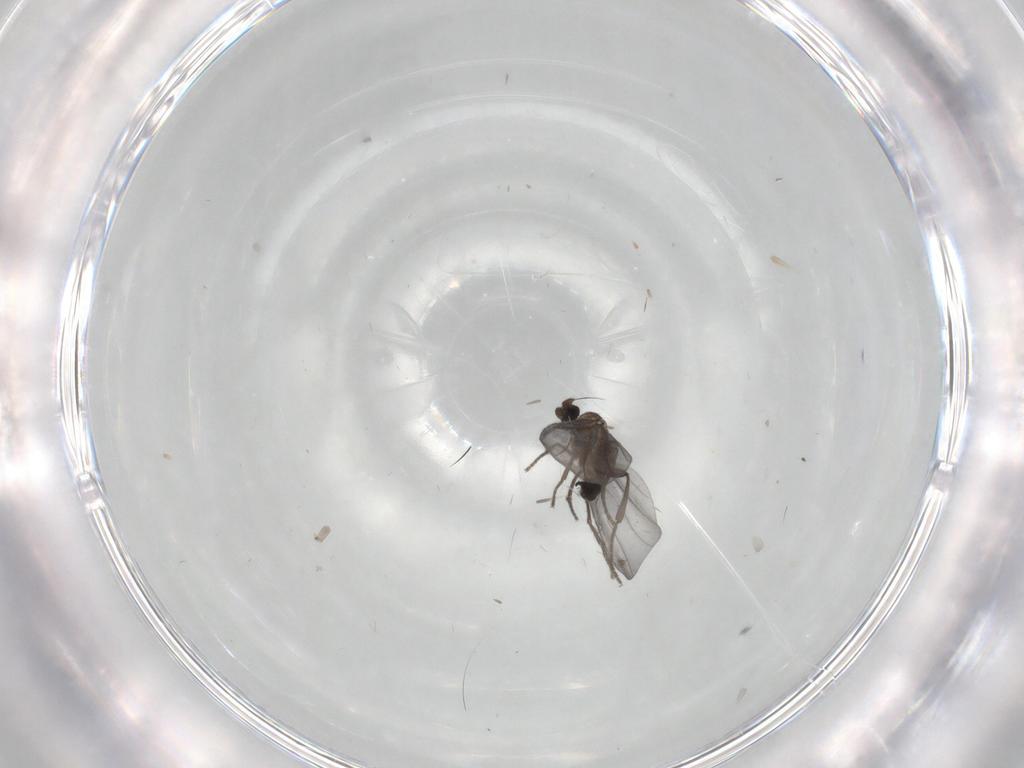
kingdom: Animalia
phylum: Arthropoda
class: Insecta
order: Diptera
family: Phoridae
